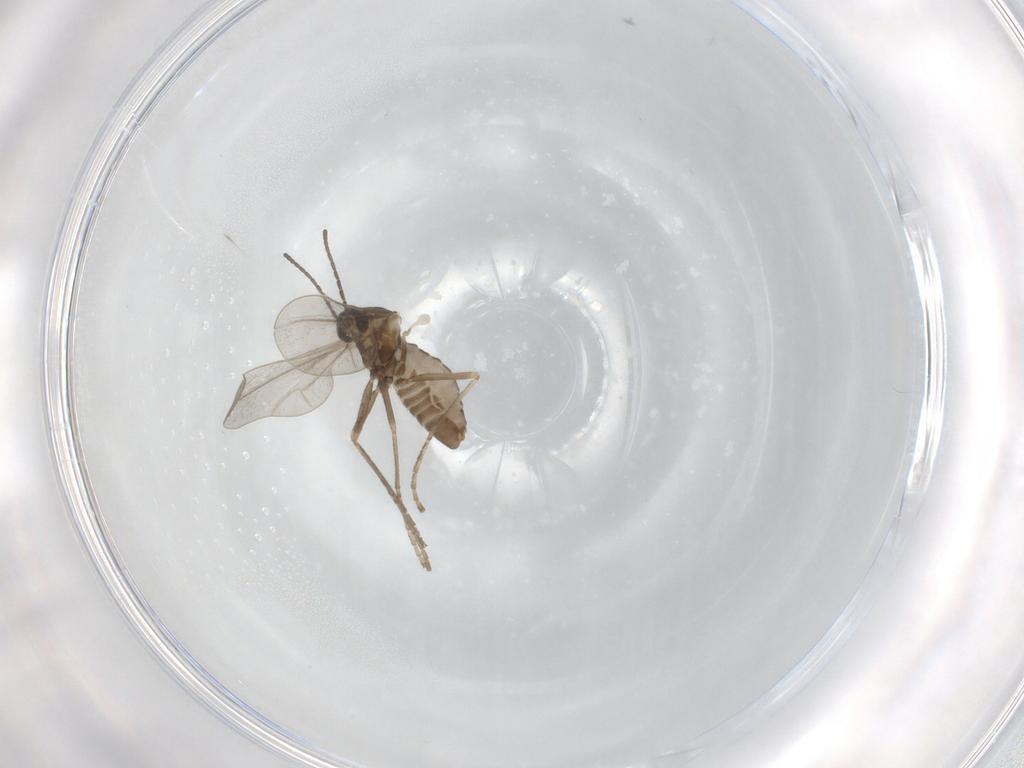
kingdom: Animalia
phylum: Arthropoda
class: Insecta
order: Diptera
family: Cecidomyiidae
